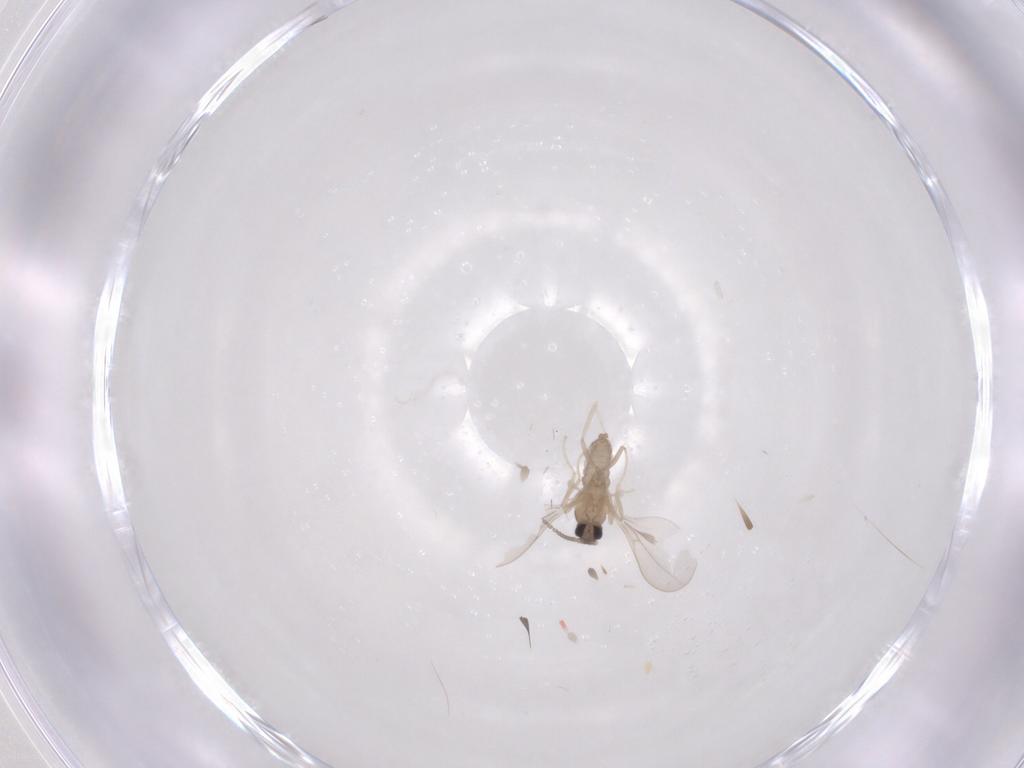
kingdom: Animalia
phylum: Arthropoda
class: Insecta
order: Diptera
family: Cecidomyiidae
